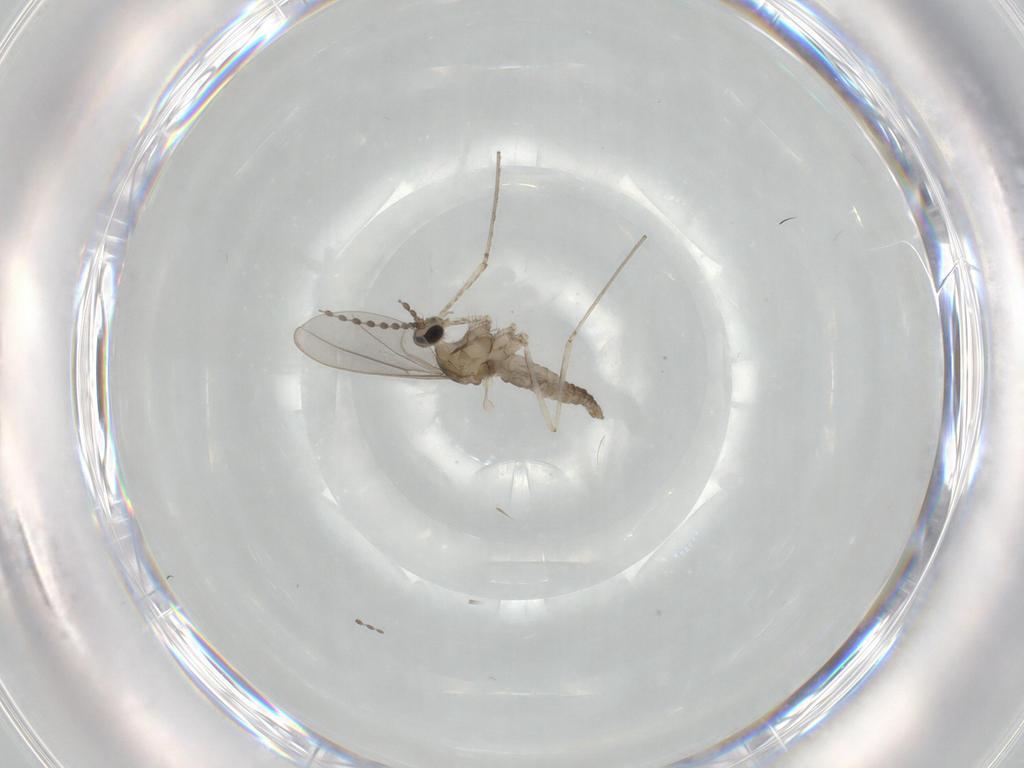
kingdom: Animalia
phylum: Arthropoda
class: Insecta
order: Diptera
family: Cecidomyiidae
